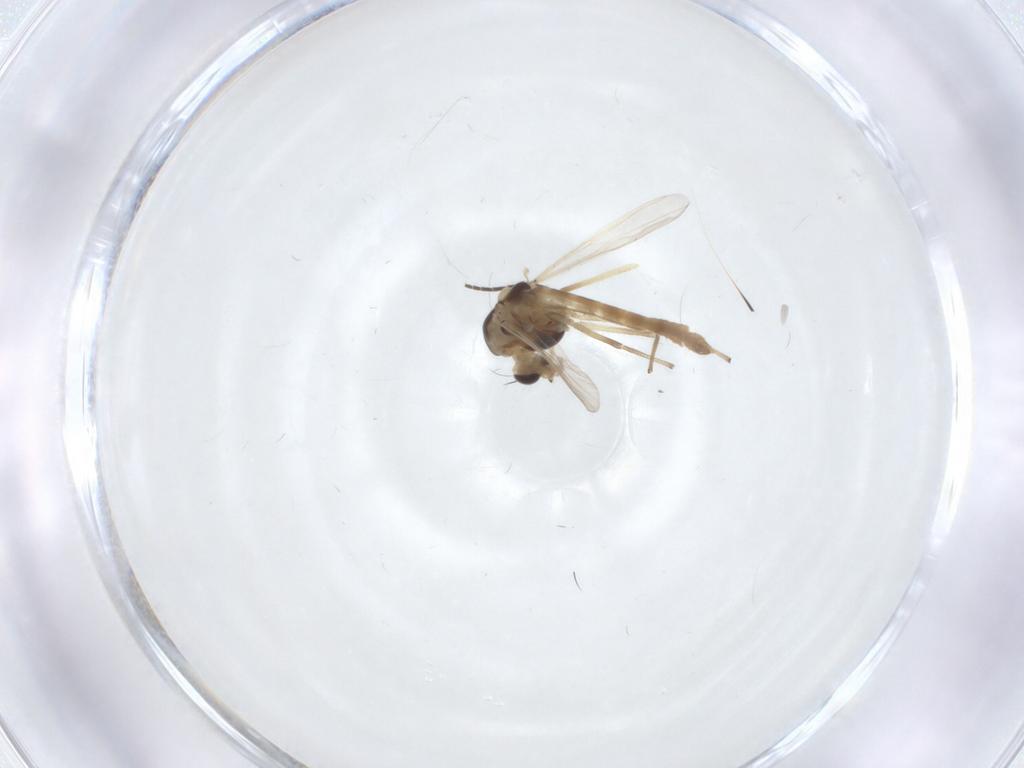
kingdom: Animalia
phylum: Arthropoda
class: Insecta
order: Diptera
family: Chironomidae
